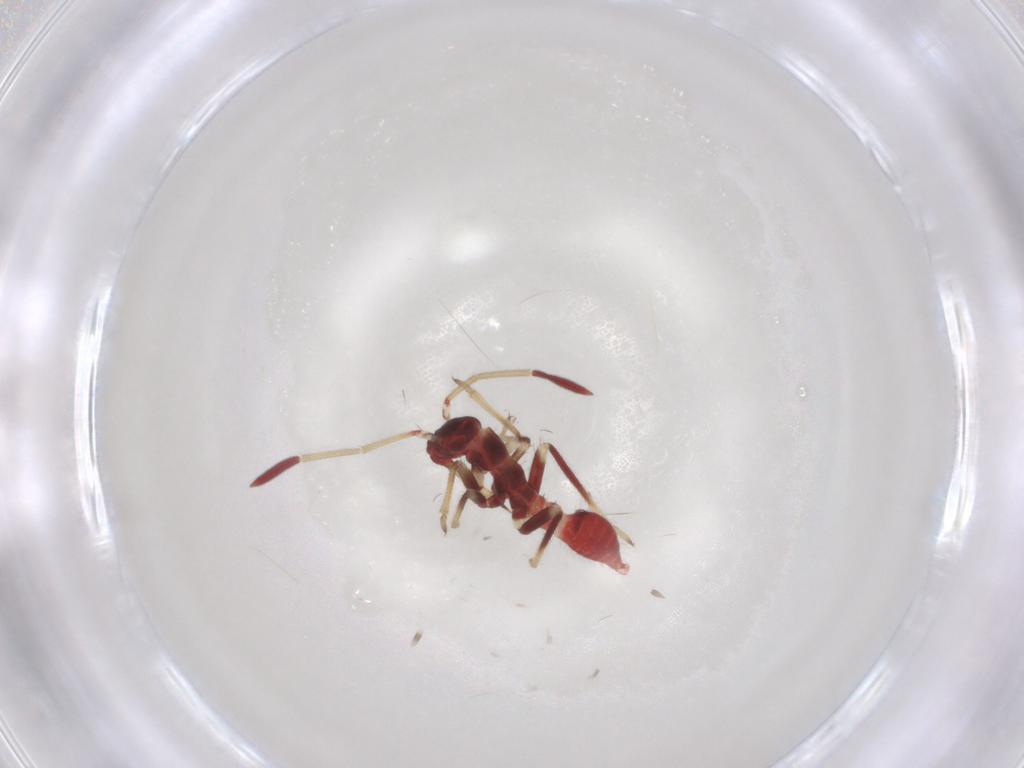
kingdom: Animalia
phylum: Arthropoda
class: Insecta
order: Hemiptera
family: Miridae
